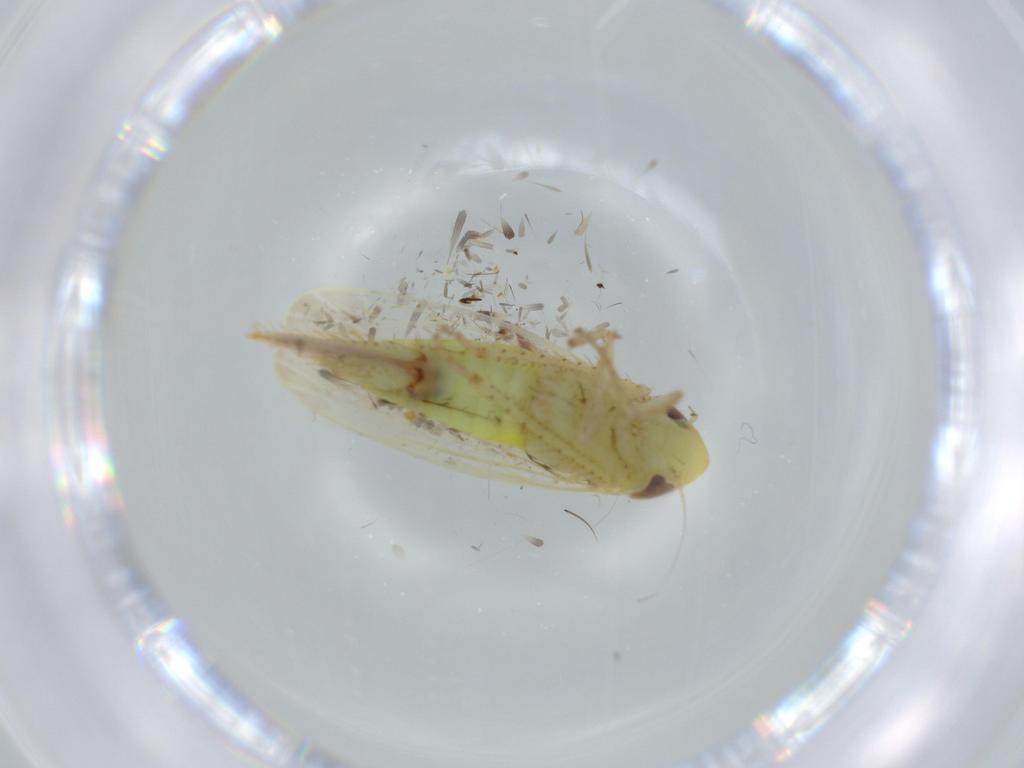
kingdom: Animalia
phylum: Arthropoda
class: Insecta
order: Hemiptera
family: Cicadellidae
